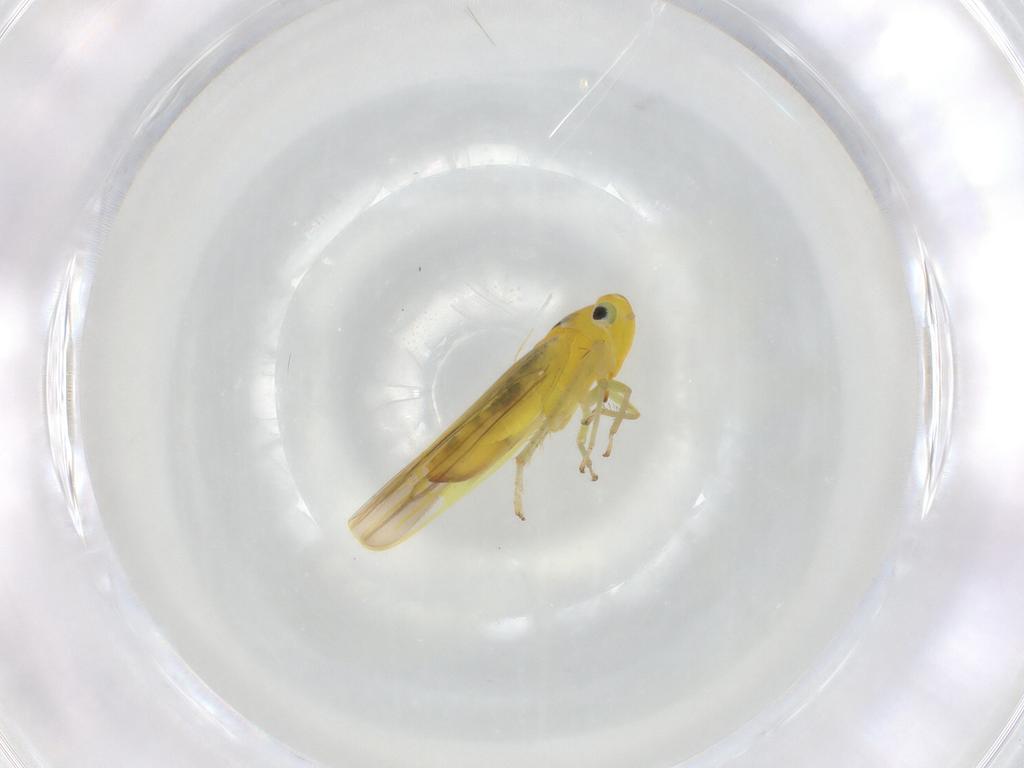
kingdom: Animalia
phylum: Arthropoda
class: Insecta
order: Hemiptera
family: Cicadellidae
